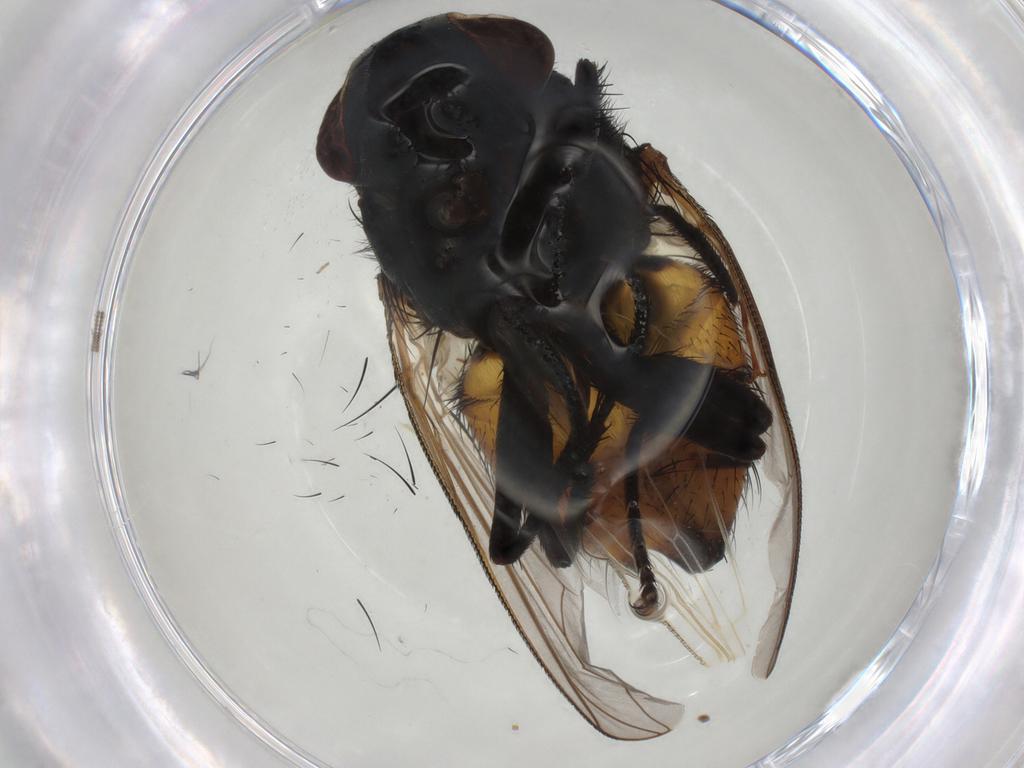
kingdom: Animalia
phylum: Arthropoda
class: Insecta
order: Diptera
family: Muscidae
